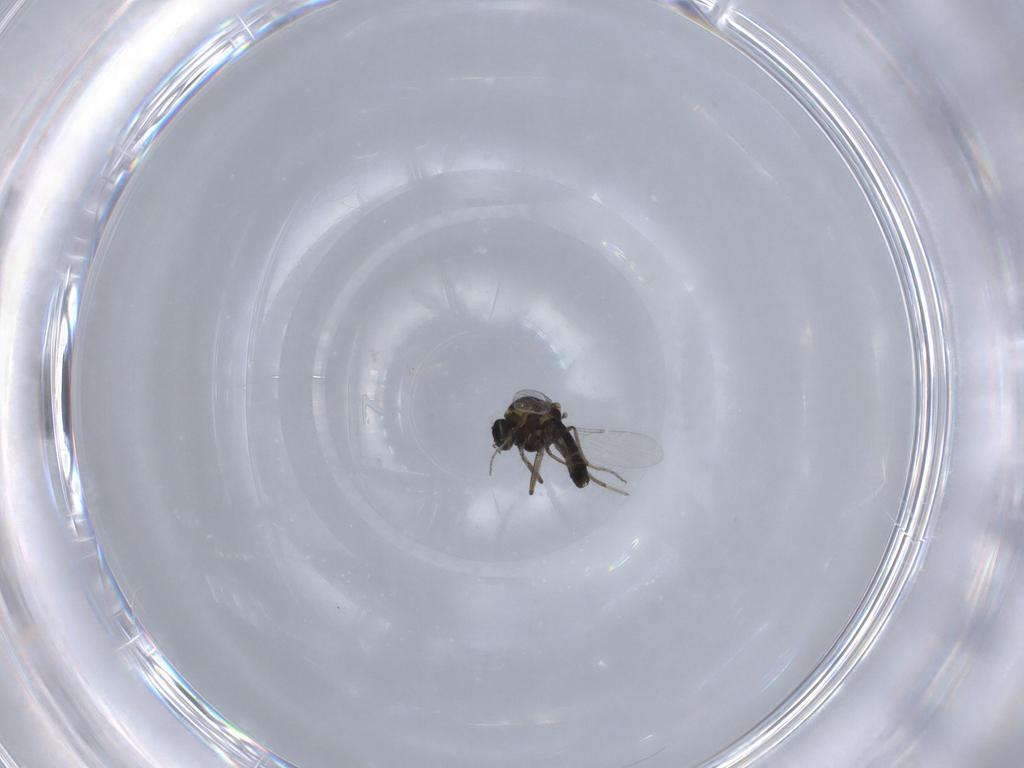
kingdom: Animalia
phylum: Arthropoda
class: Insecta
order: Diptera
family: Ceratopogonidae
